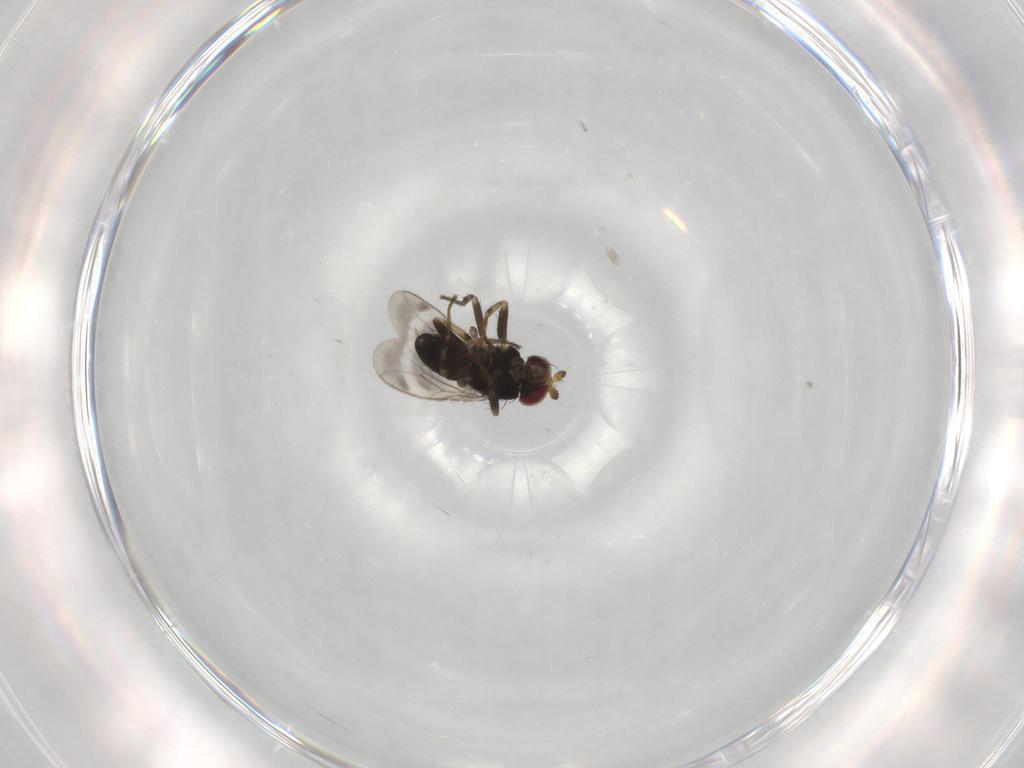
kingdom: Animalia
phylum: Arthropoda
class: Insecta
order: Diptera
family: Sphaeroceridae
